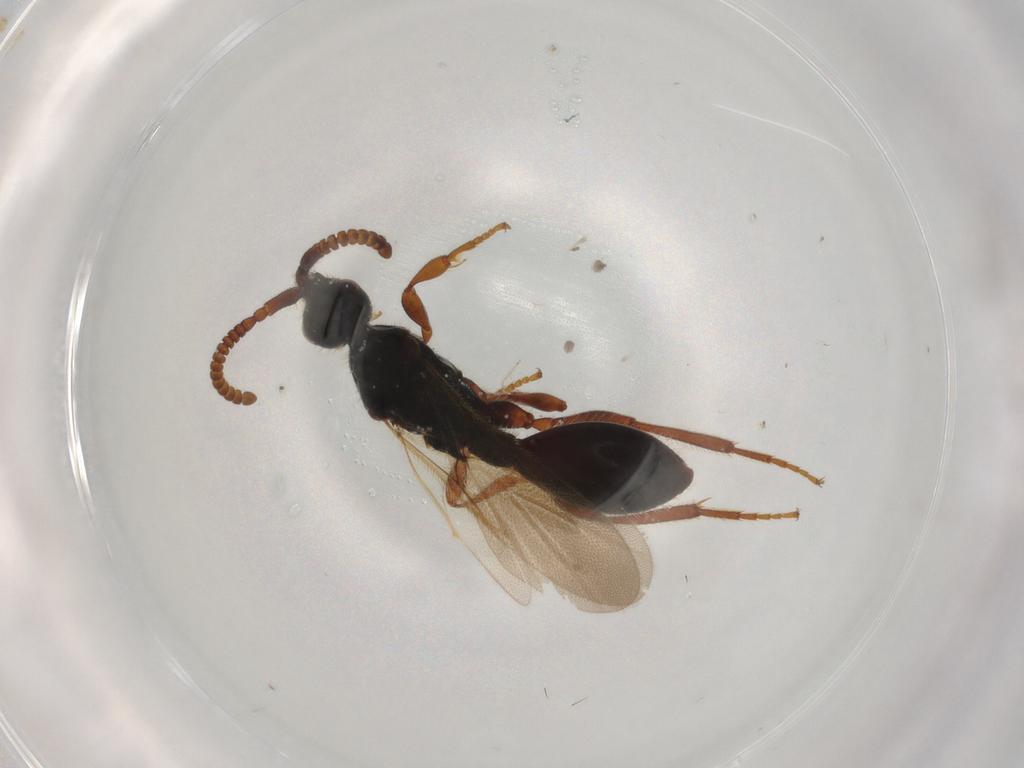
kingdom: Animalia
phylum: Arthropoda
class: Insecta
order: Hymenoptera
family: Braconidae
